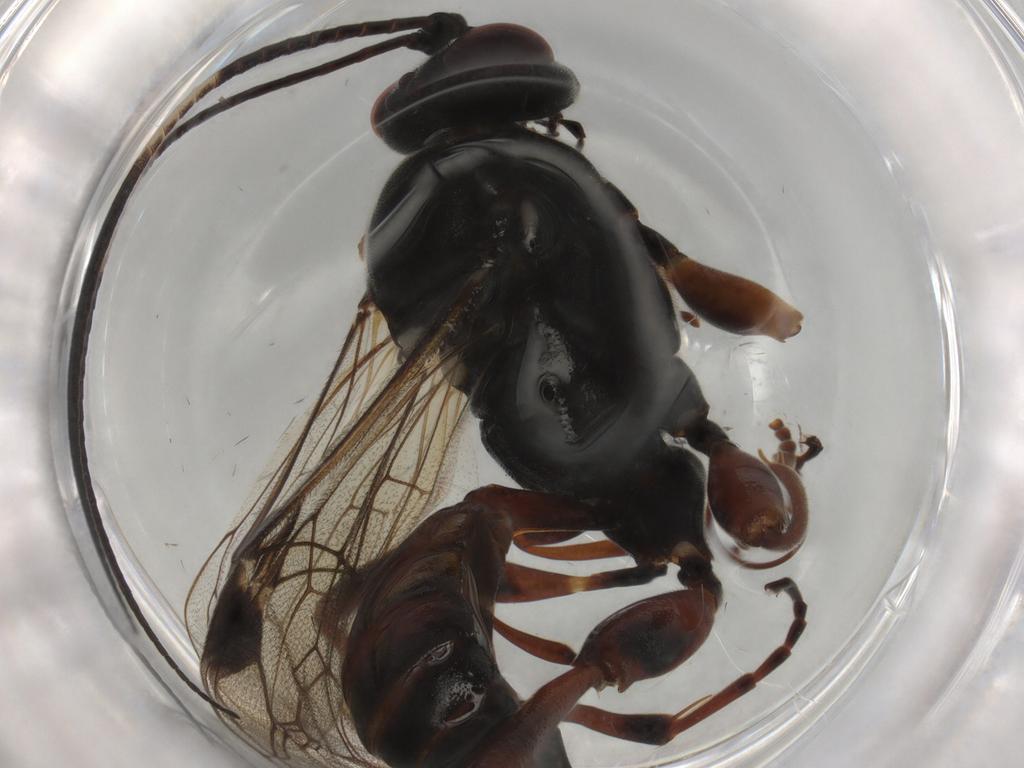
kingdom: Animalia
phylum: Arthropoda
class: Insecta
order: Hymenoptera
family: Ichneumonidae
